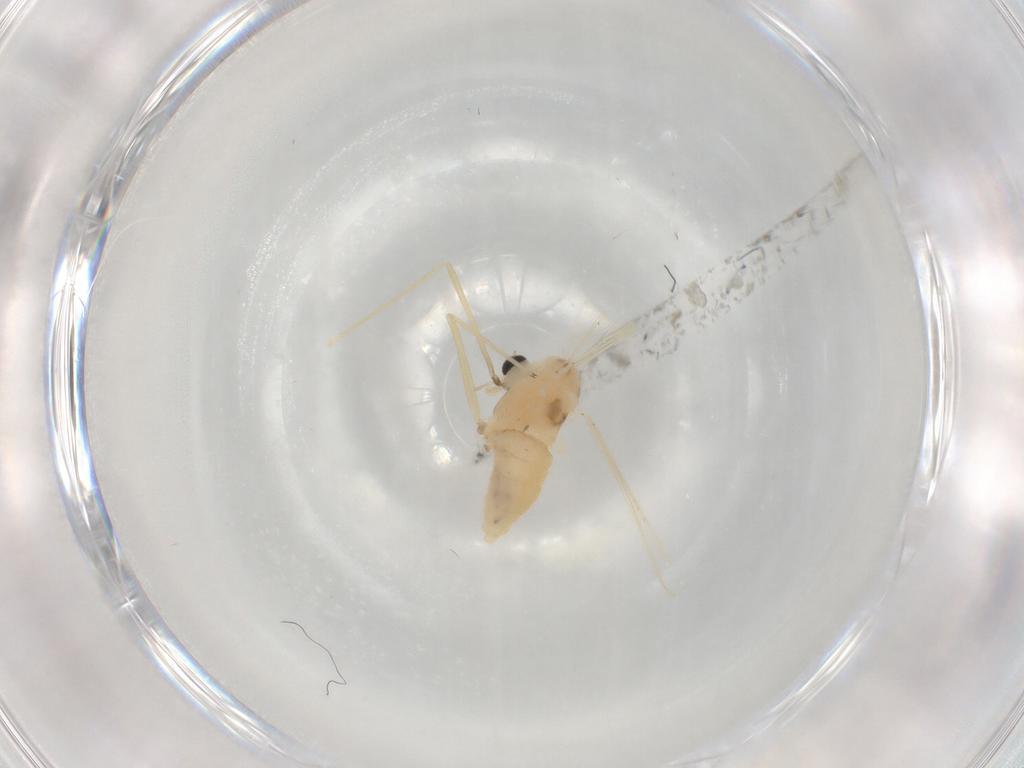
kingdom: Animalia
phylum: Arthropoda
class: Insecta
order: Diptera
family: Chironomidae
